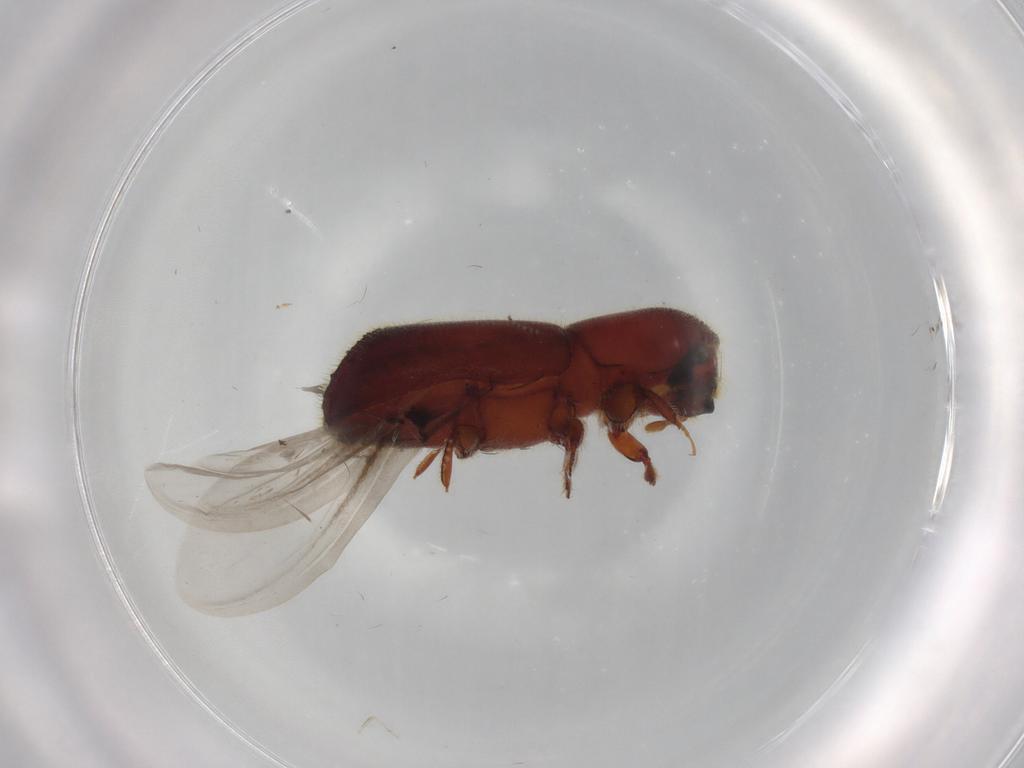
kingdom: Animalia
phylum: Arthropoda
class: Insecta
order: Coleoptera
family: Scraptiidae
